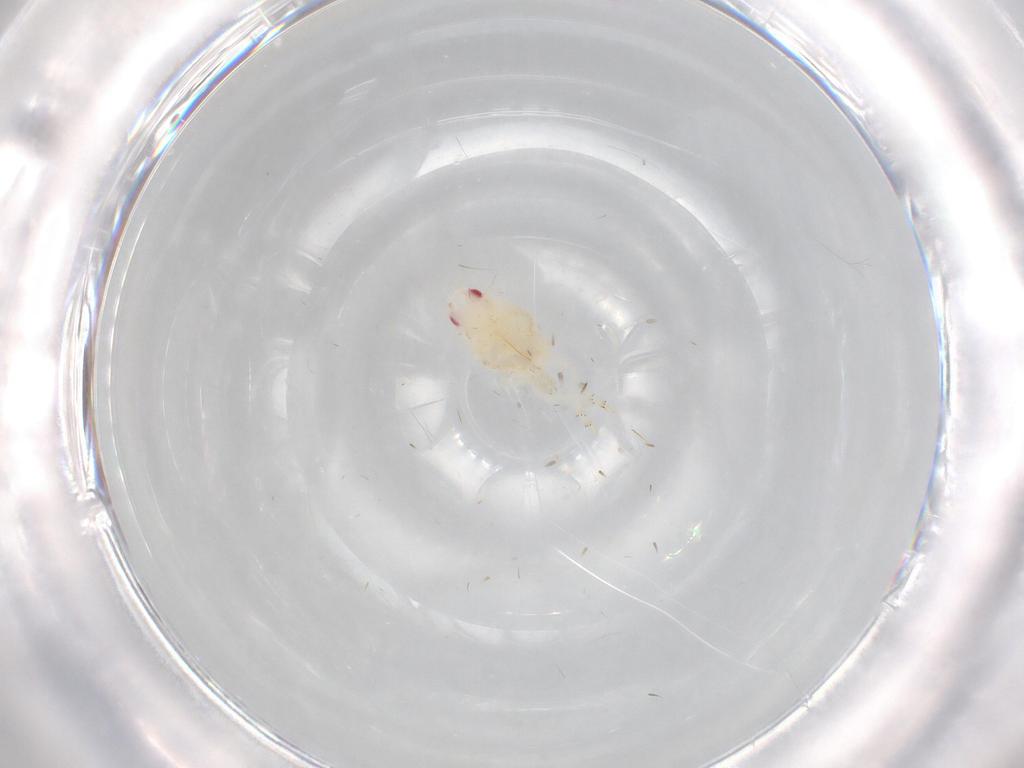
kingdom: Animalia
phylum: Arthropoda
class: Insecta
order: Hemiptera
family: Flatidae
